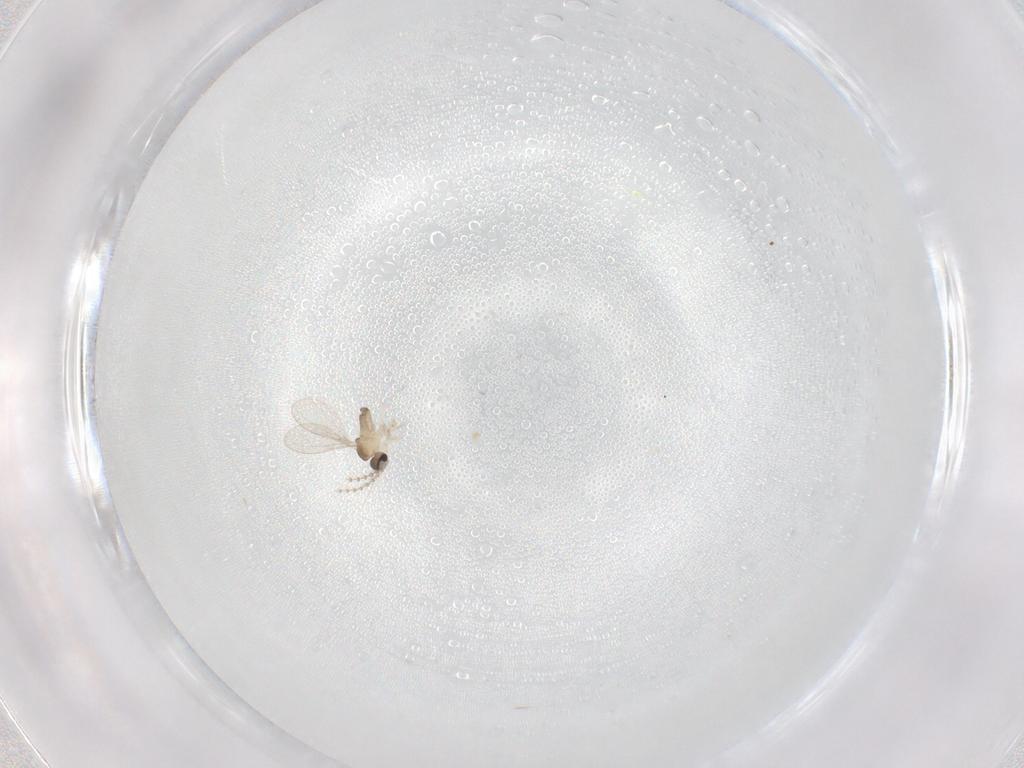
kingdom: Animalia
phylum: Arthropoda
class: Insecta
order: Diptera
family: Cecidomyiidae
